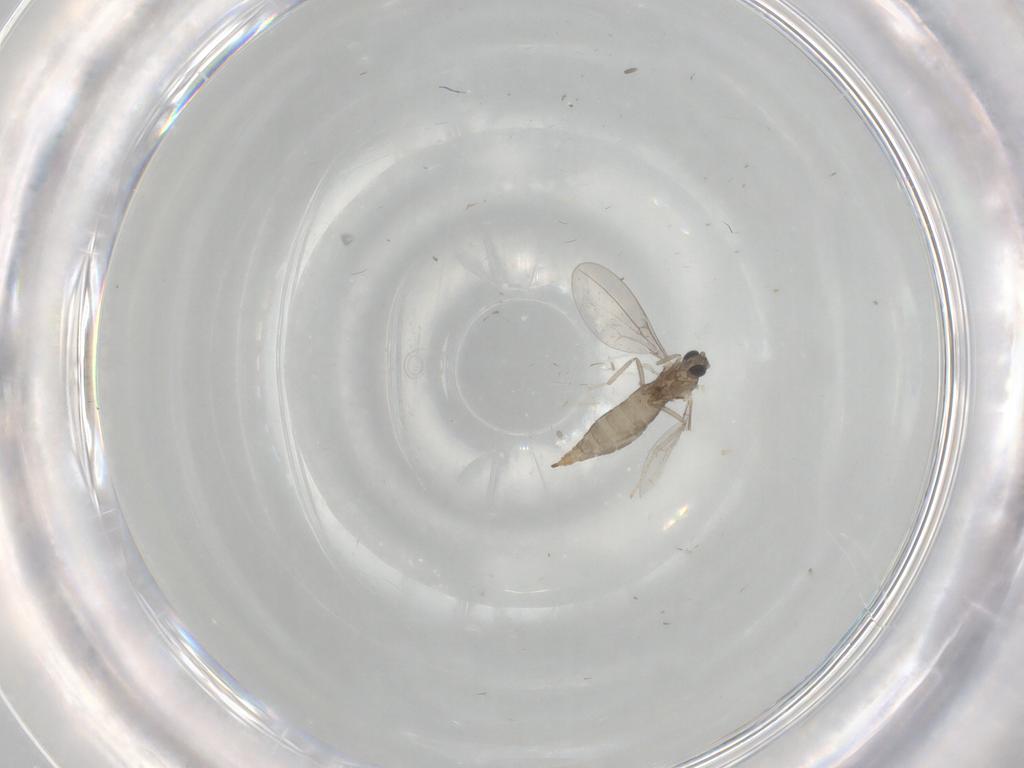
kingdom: Animalia
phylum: Arthropoda
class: Insecta
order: Diptera
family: Cecidomyiidae
